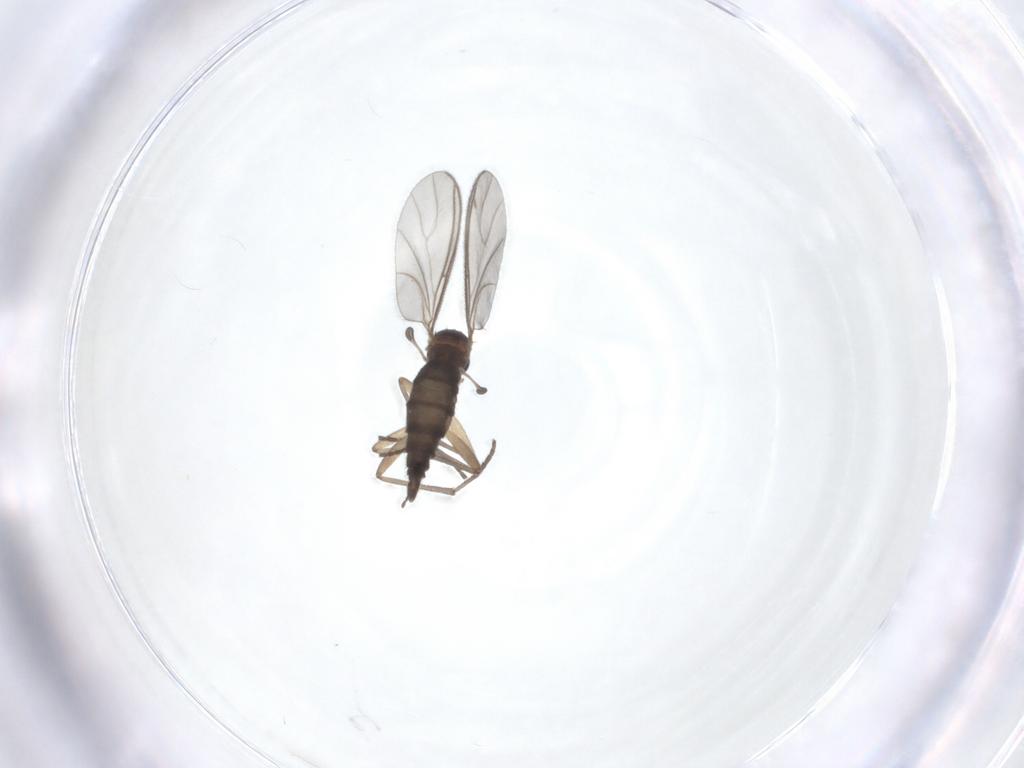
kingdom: Animalia
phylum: Arthropoda
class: Insecta
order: Diptera
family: Sciaridae
